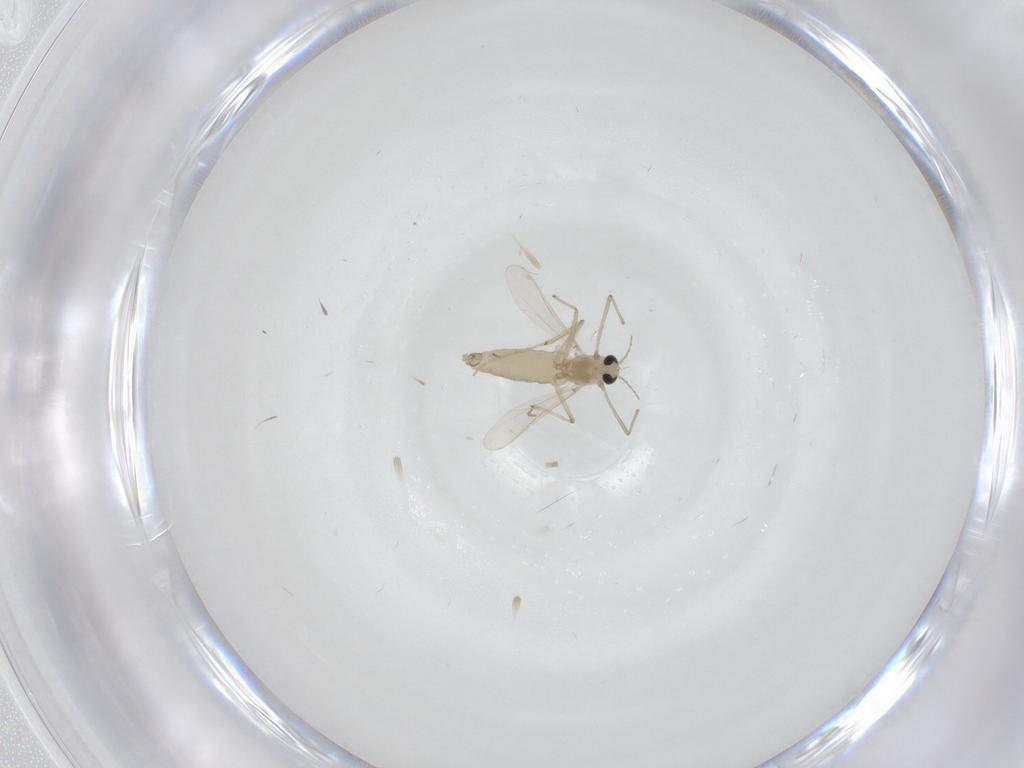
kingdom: Animalia
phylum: Arthropoda
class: Insecta
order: Diptera
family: Chironomidae
